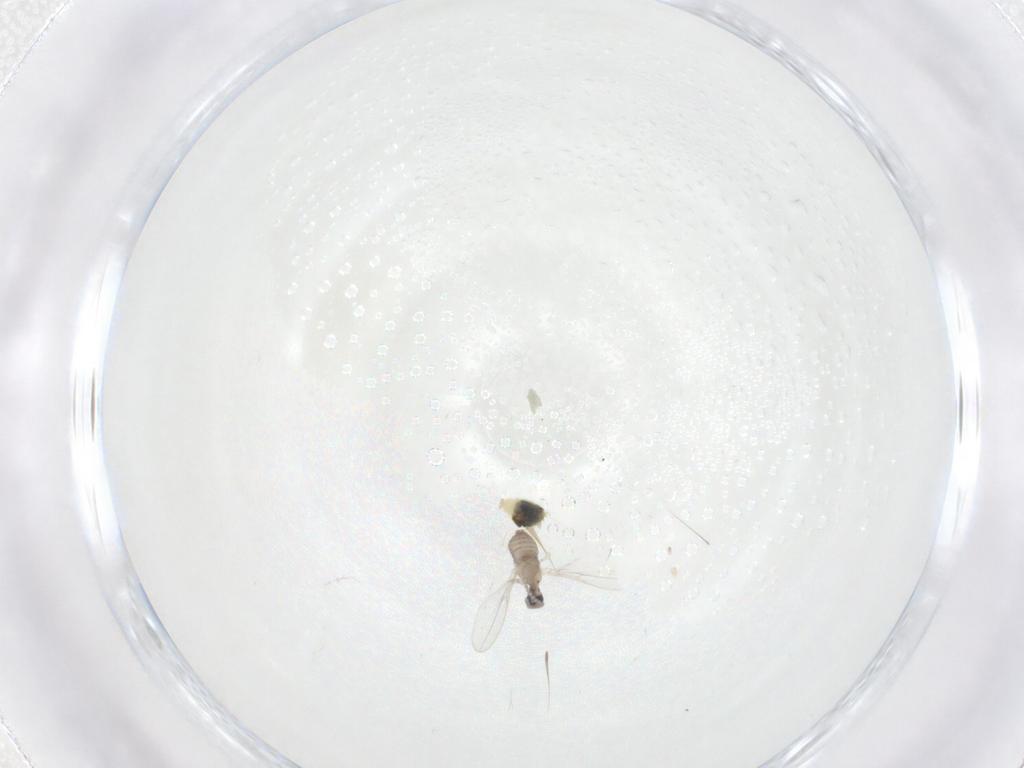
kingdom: Animalia
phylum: Arthropoda
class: Insecta
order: Diptera
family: Cecidomyiidae
